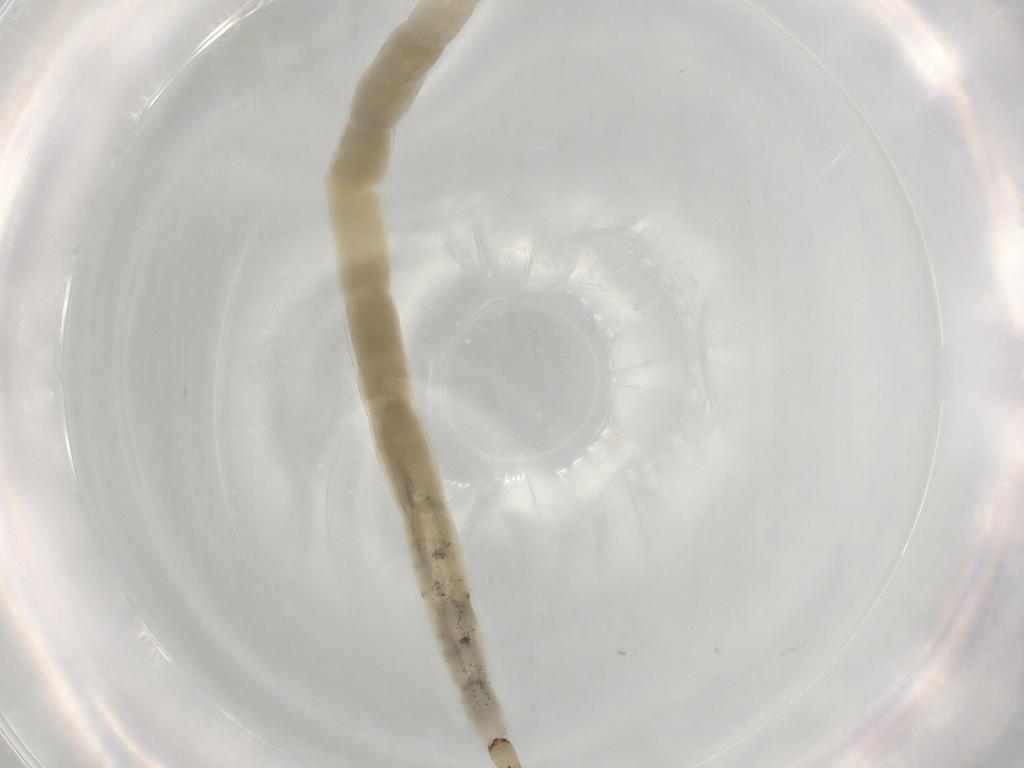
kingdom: Animalia
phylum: Arthropoda
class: Insecta
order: Diptera
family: Ceratopogonidae
